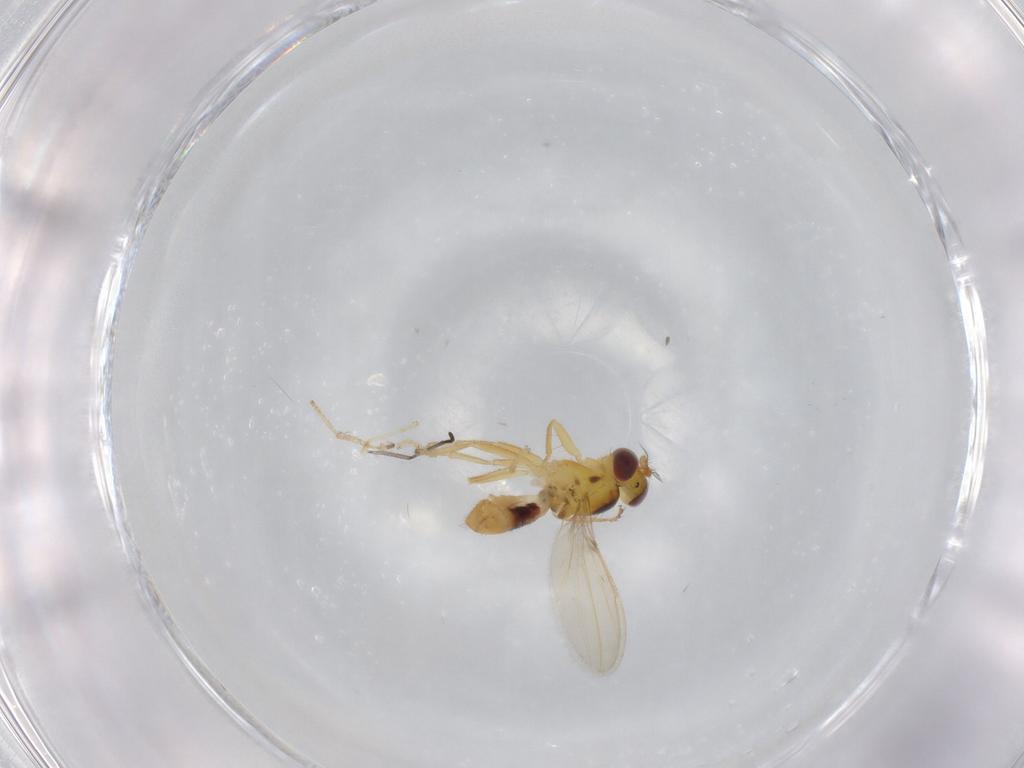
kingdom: Animalia
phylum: Arthropoda
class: Insecta
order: Diptera
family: Periscelididae
